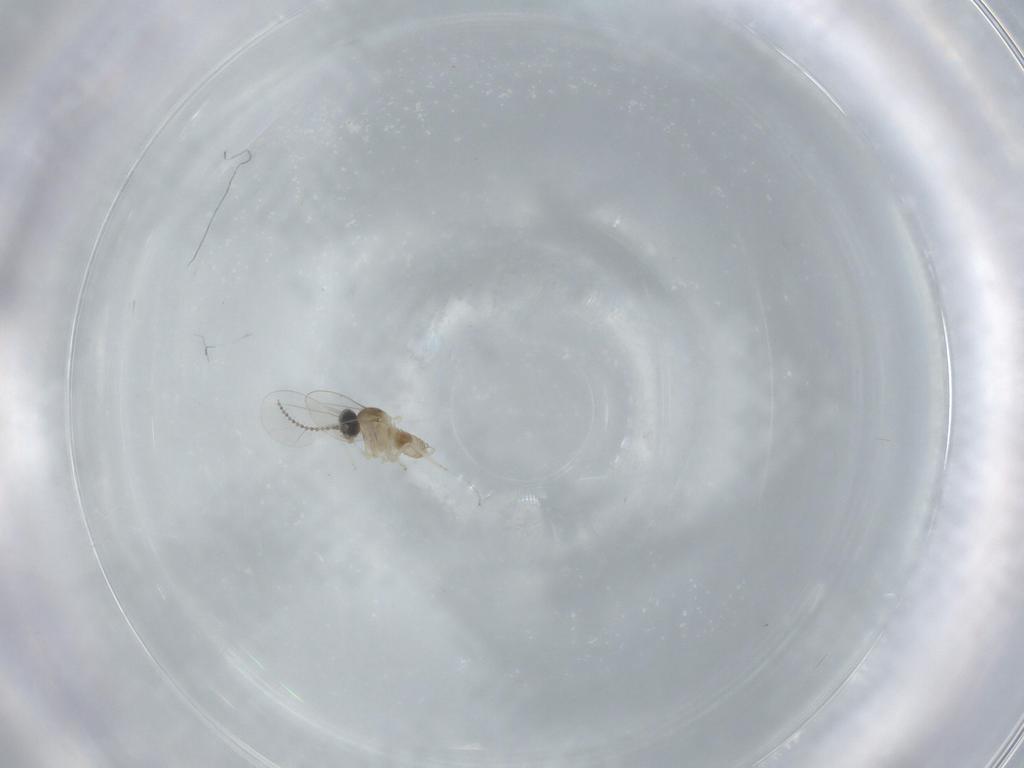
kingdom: Animalia
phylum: Arthropoda
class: Insecta
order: Diptera
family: Cecidomyiidae
